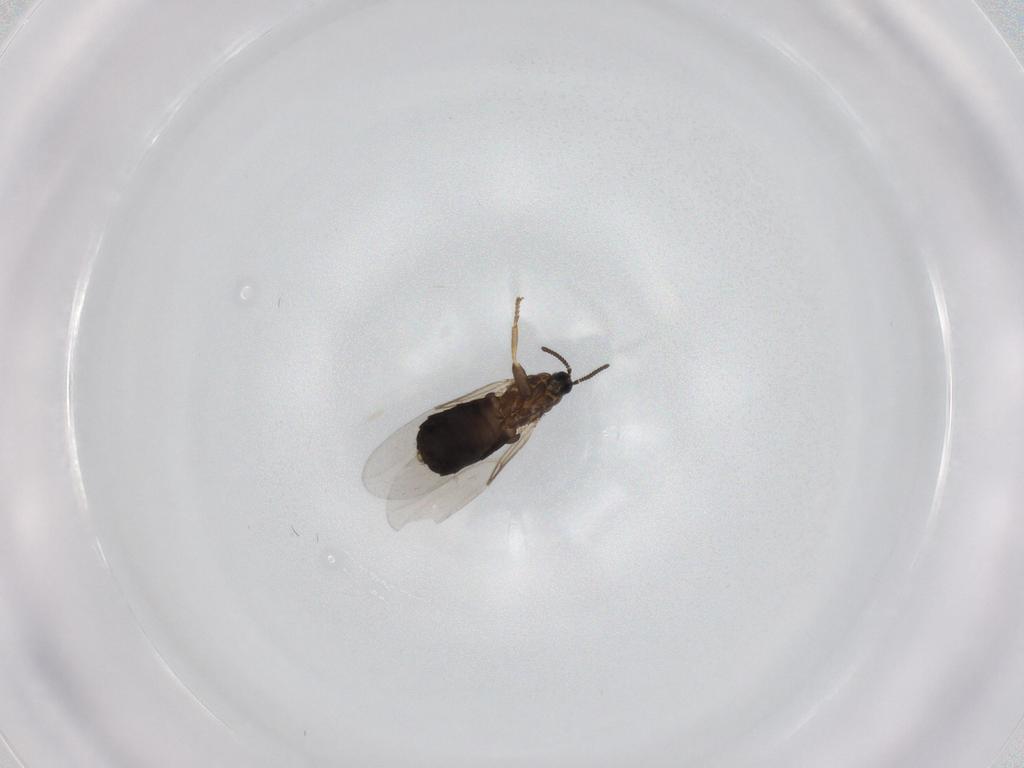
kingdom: Animalia
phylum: Arthropoda
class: Insecta
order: Diptera
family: Scatopsidae
